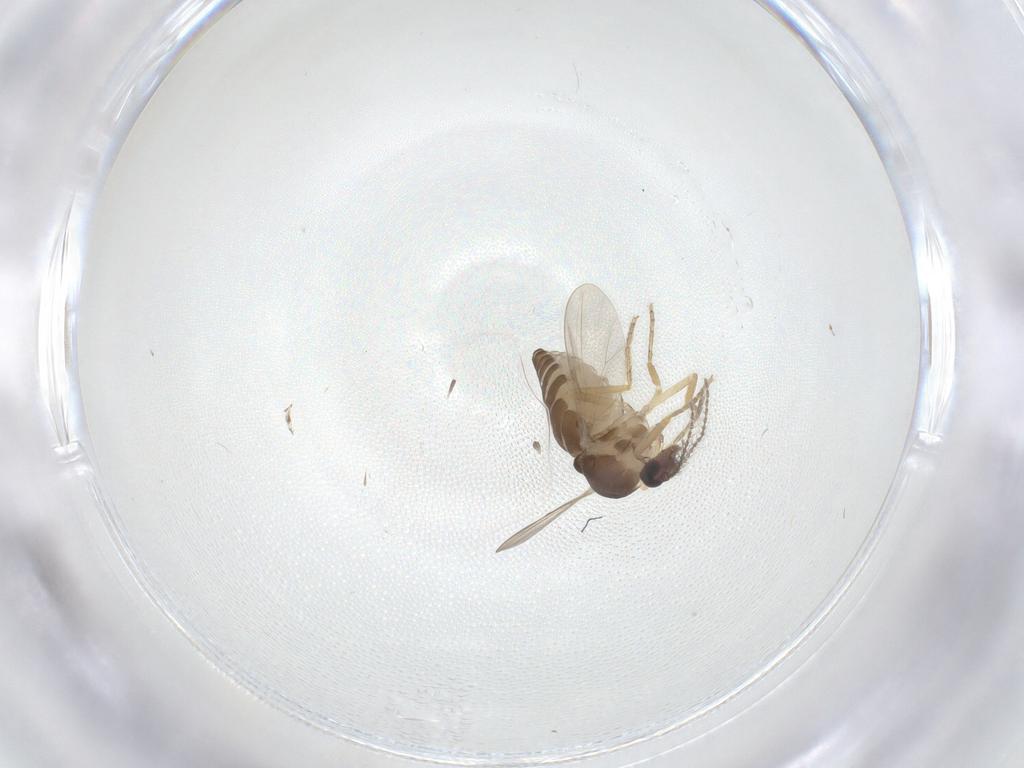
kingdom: Animalia
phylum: Arthropoda
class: Insecta
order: Diptera
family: Ceratopogonidae
